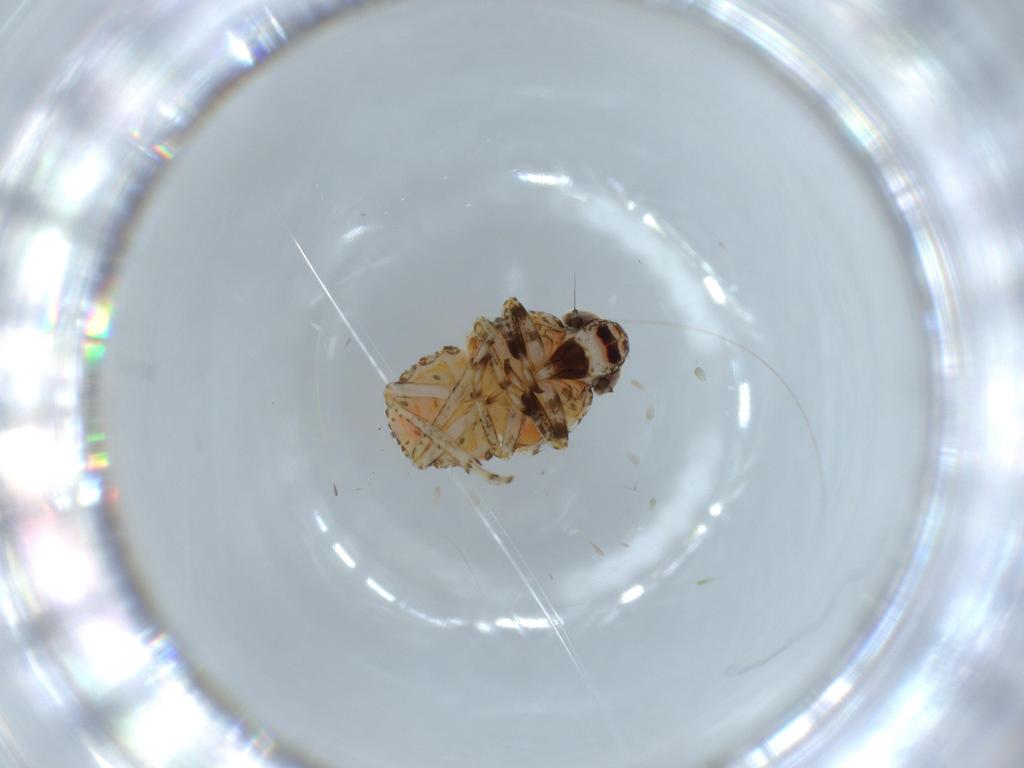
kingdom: Animalia
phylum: Arthropoda
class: Insecta
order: Hemiptera
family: Issidae
